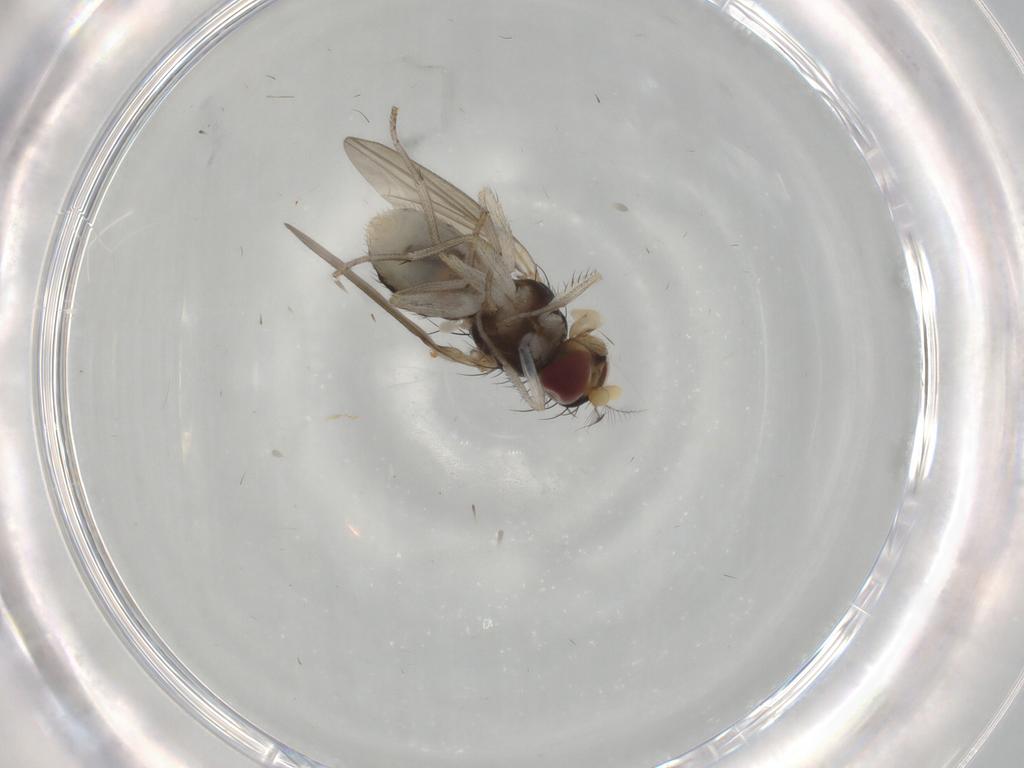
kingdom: Animalia
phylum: Arthropoda
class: Insecta
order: Diptera
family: Lauxaniidae
